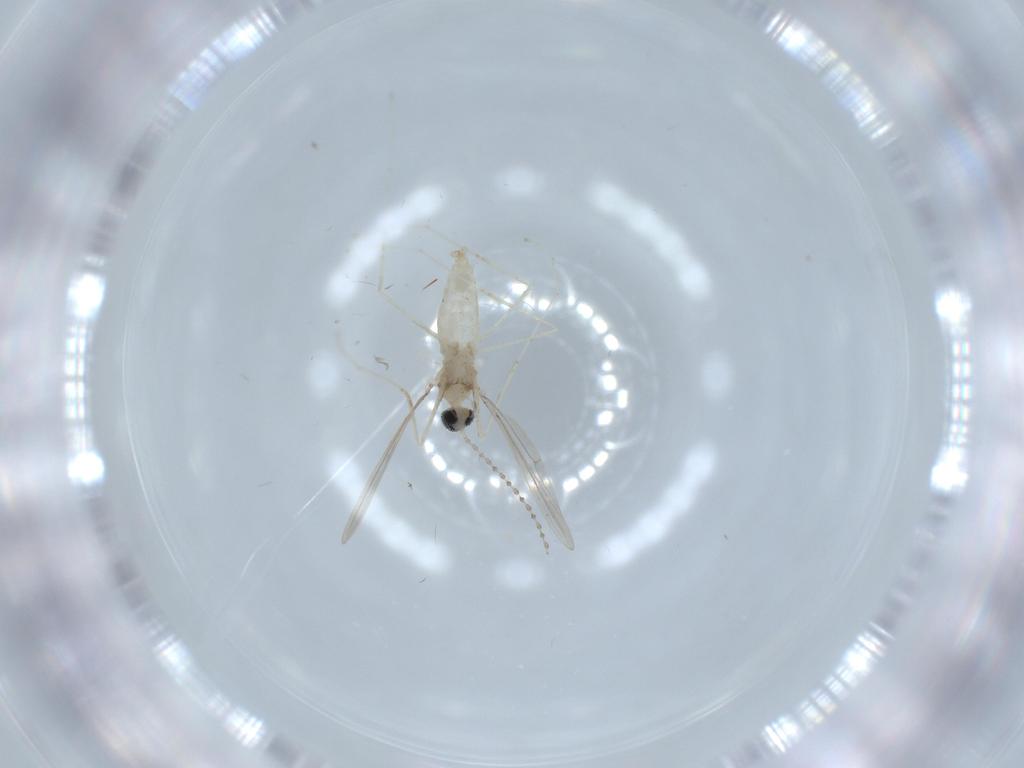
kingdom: Animalia
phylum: Arthropoda
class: Insecta
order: Diptera
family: Cecidomyiidae
